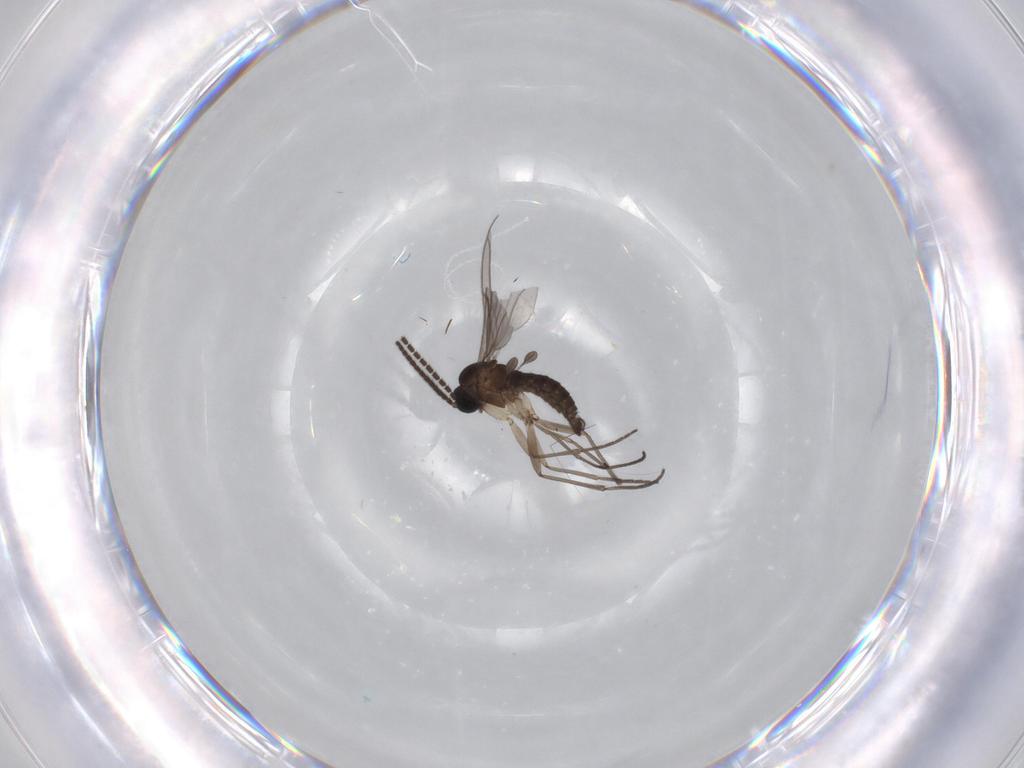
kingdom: Animalia
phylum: Arthropoda
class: Insecta
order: Diptera
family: Sciaridae
